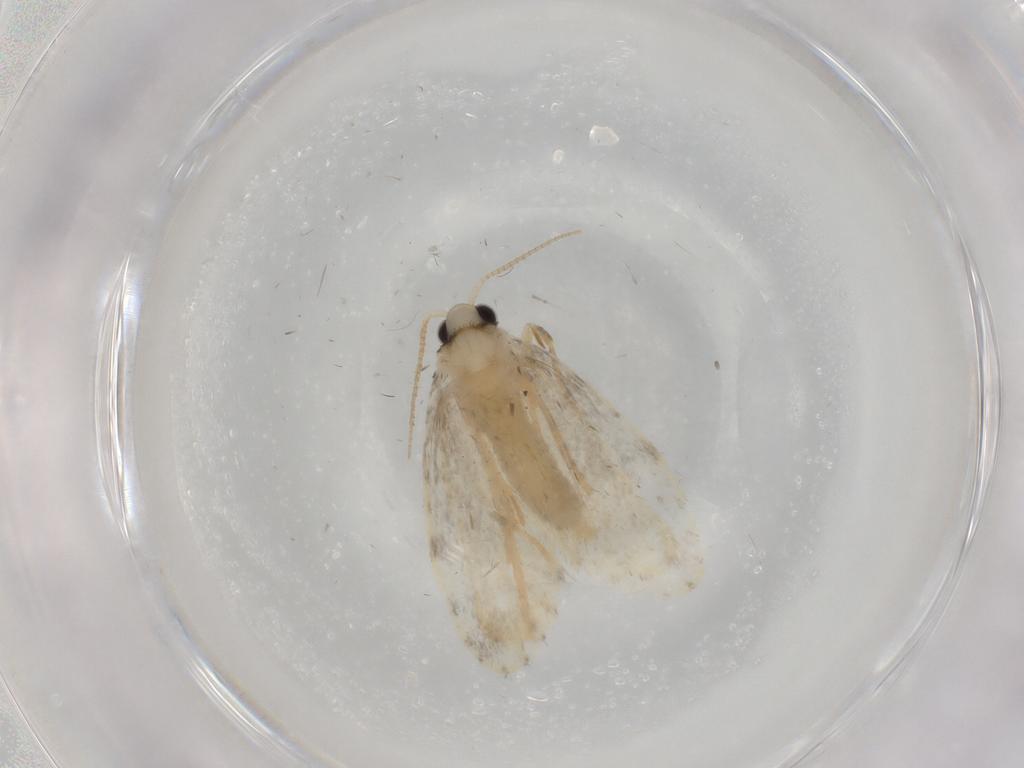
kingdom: Animalia
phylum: Arthropoda
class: Insecta
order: Lepidoptera
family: Psychidae
